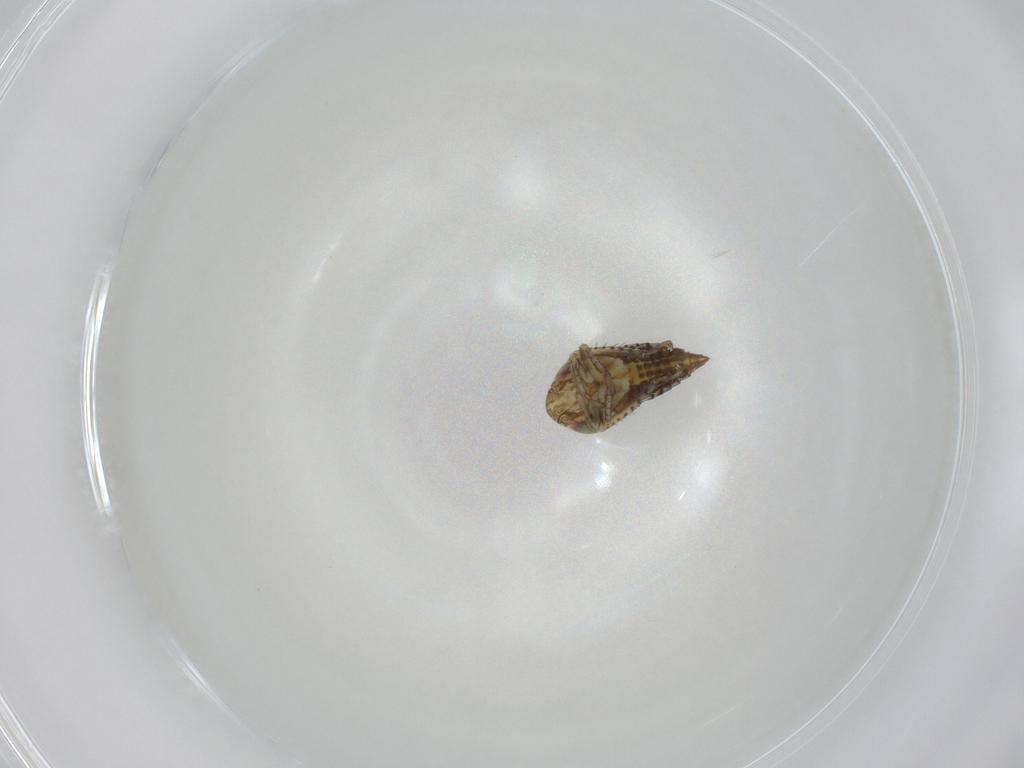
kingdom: Animalia
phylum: Arthropoda
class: Insecta
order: Hemiptera
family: Cicadellidae
